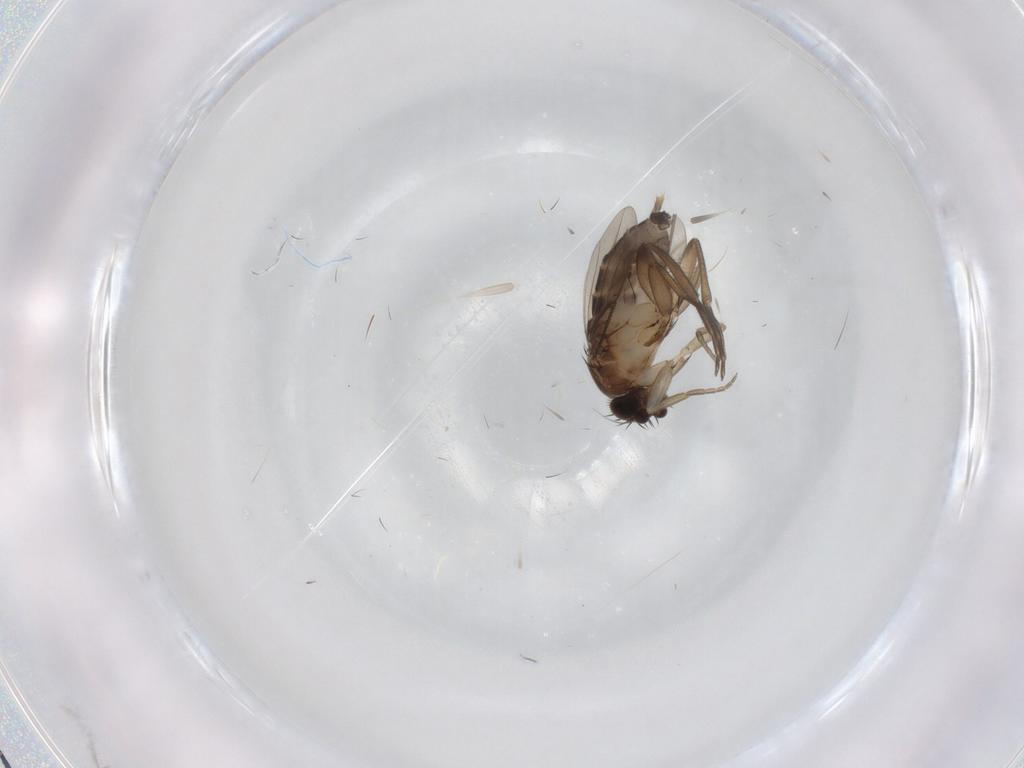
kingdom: Animalia
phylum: Arthropoda
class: Insecta
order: Diptera
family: Phoridae
